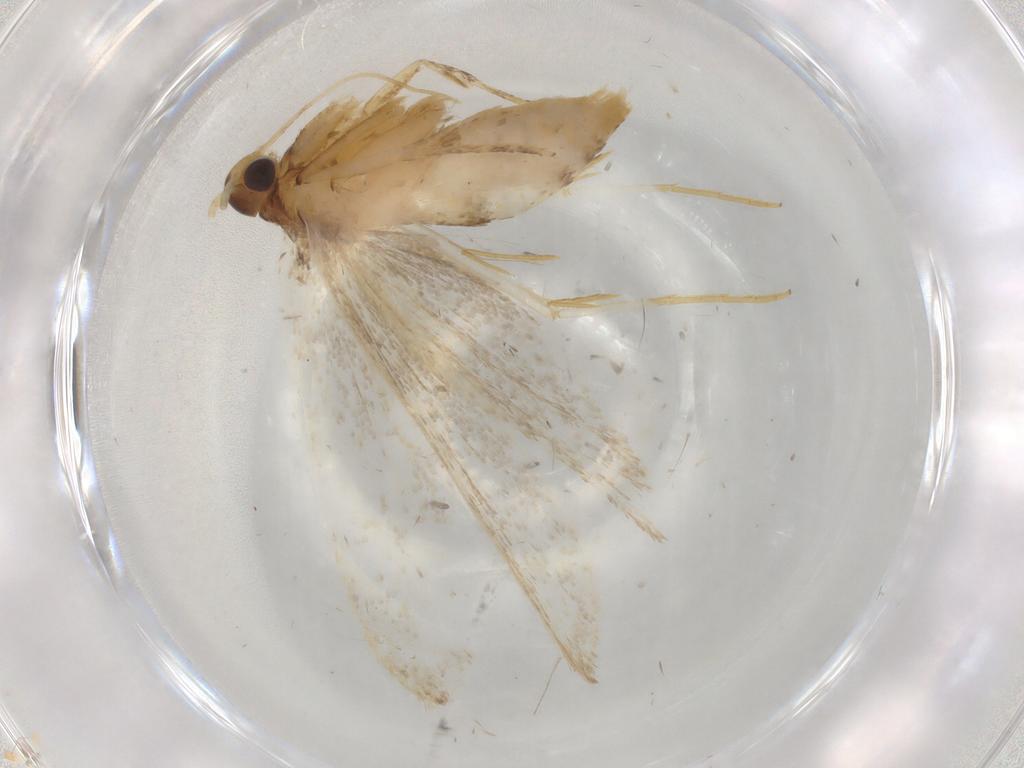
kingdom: Animalia
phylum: Arthropoda
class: Insecta
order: Lepidoptera
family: Lecithoceridae
